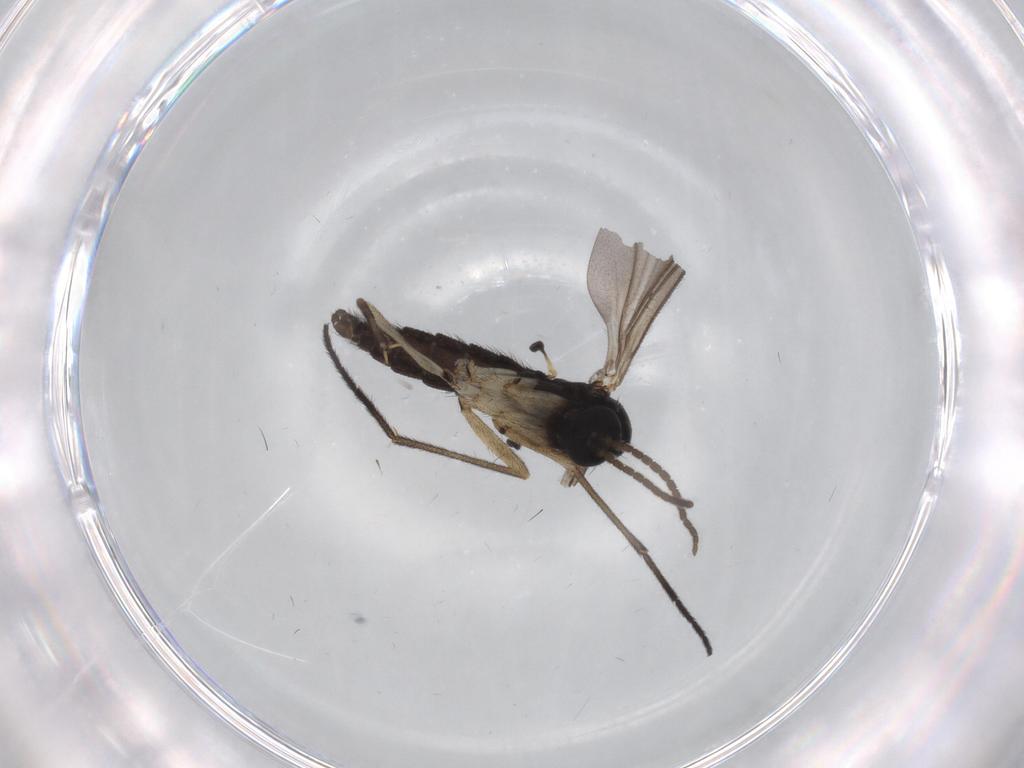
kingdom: Animalia
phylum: Arthropoda
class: Insecta
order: Diptera
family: Sciaridae
